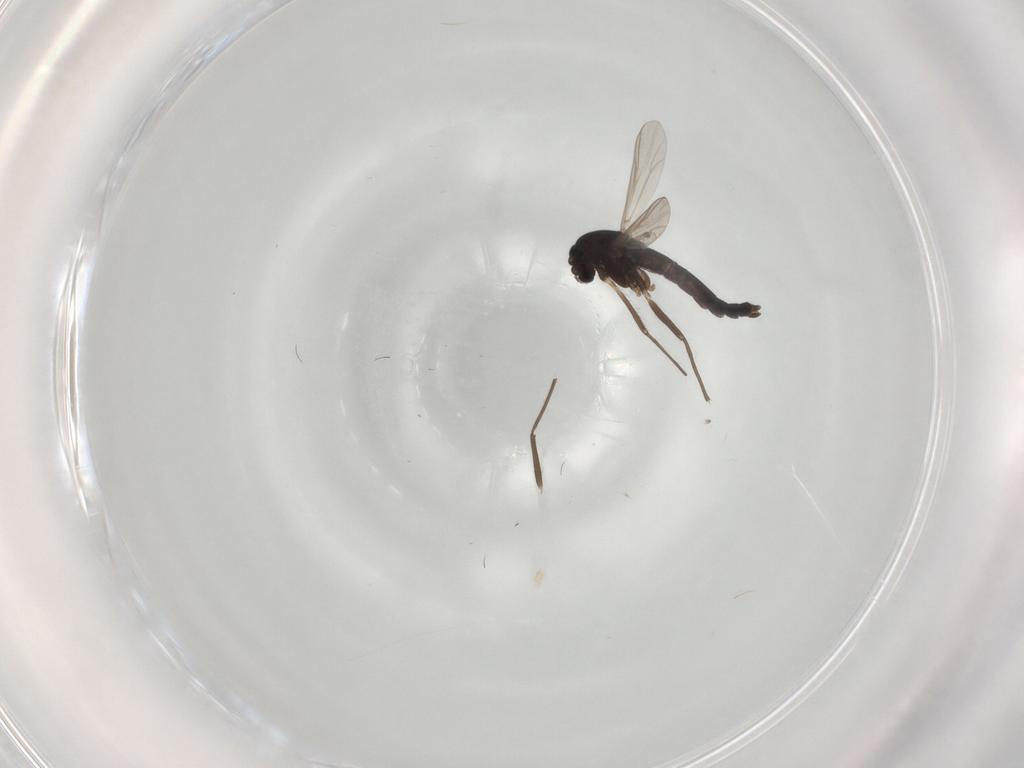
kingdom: Animalia
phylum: Arthropoda
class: Insecta
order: Diptera
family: Chironomidae
